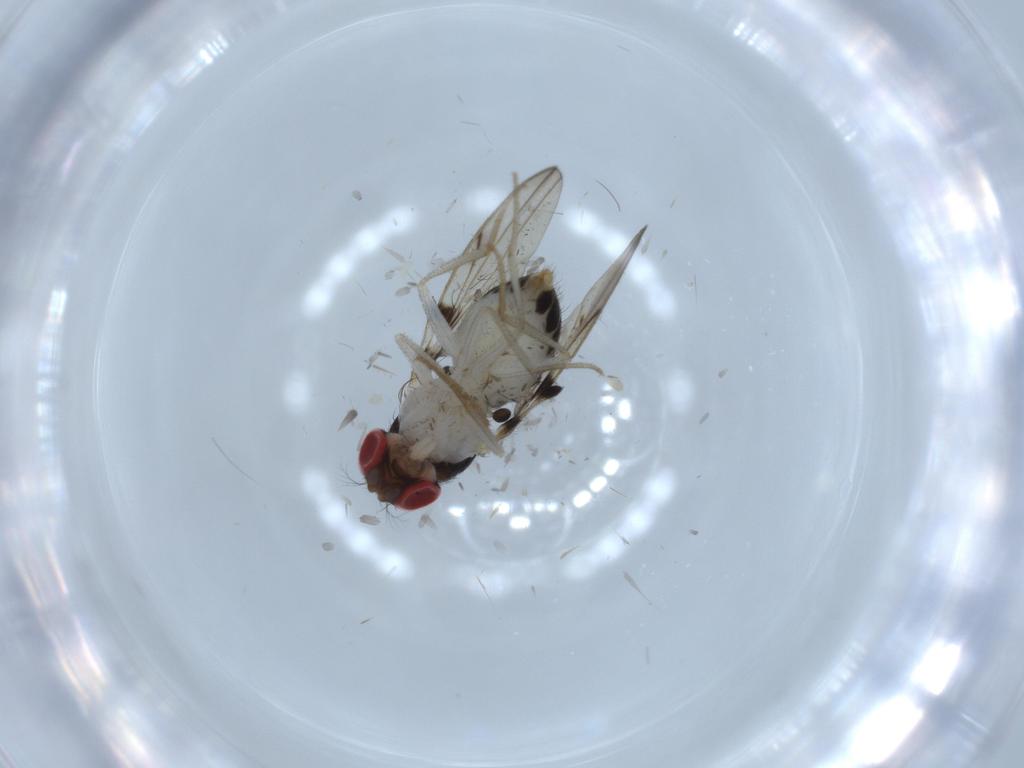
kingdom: Animalia
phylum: Arthropoda
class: Insecta
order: Diptera
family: Drosophilidae
